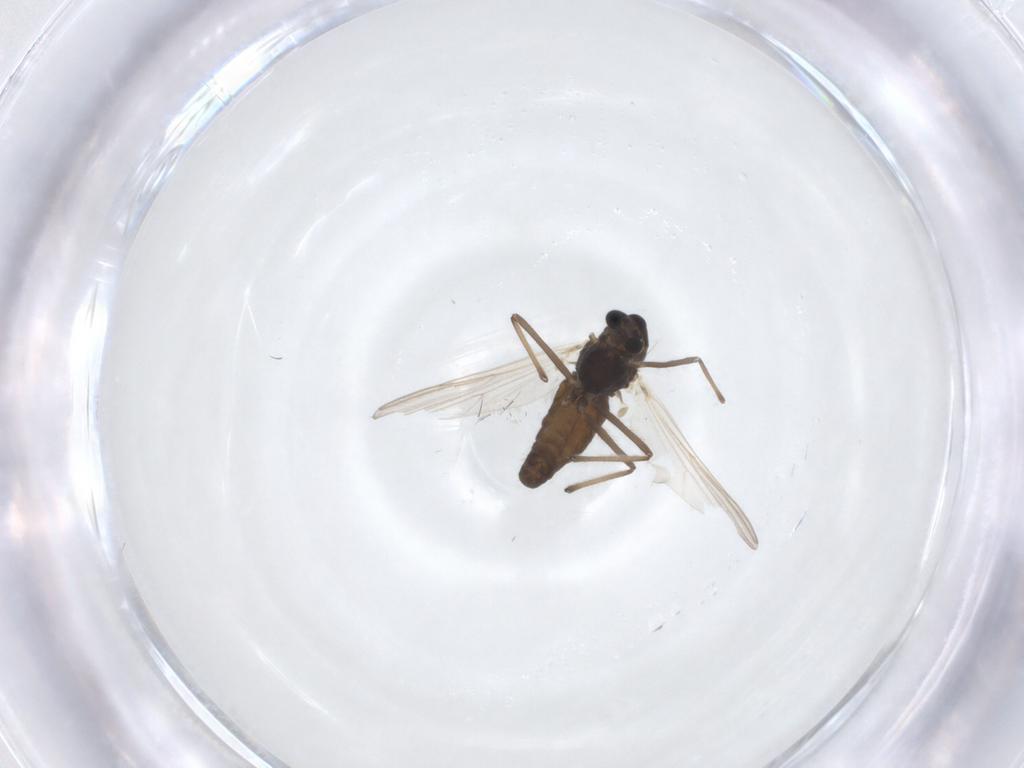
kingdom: Animalia
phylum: Arthropoda
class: Insecta
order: Diptera
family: Chironomidae
